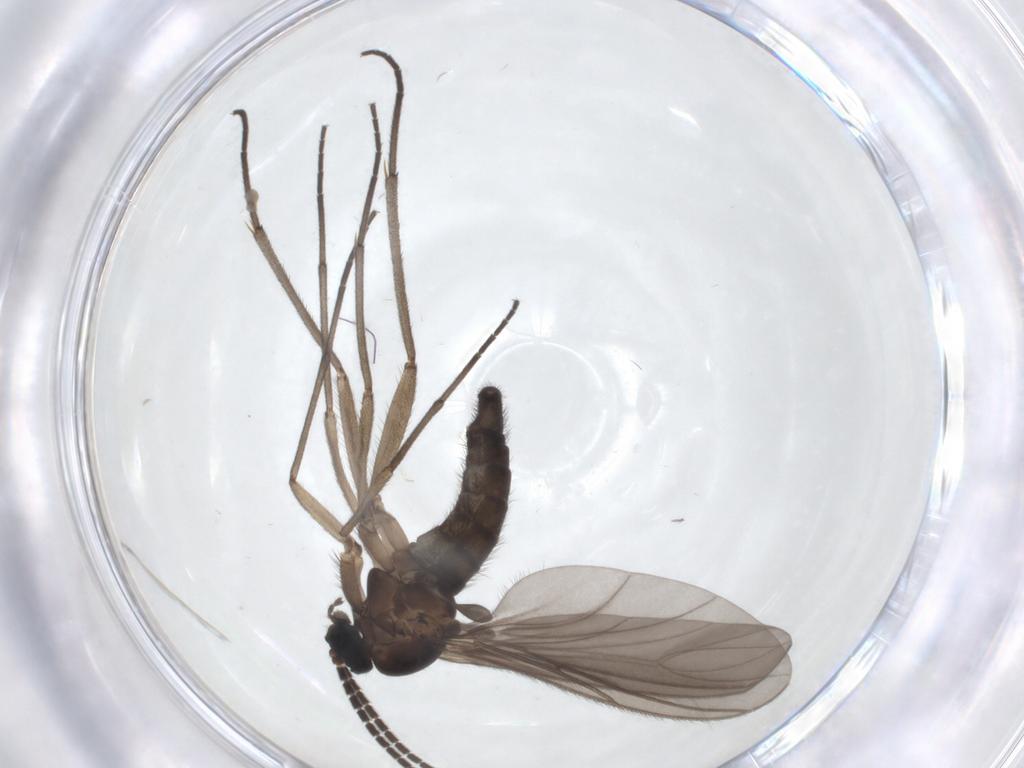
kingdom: Animalia
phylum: Arthropoda
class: Insecta
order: Diptera
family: Sciaridae
